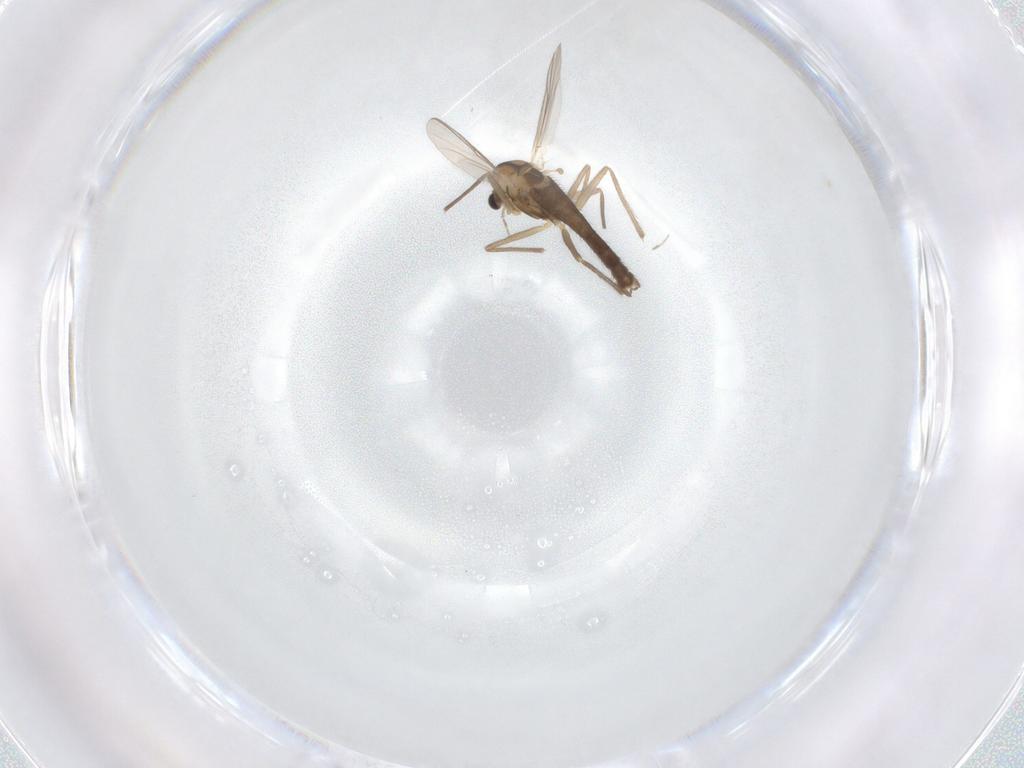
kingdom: Animalia
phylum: Arthropoda
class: Insecta
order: Diptera
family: Chironomidae
